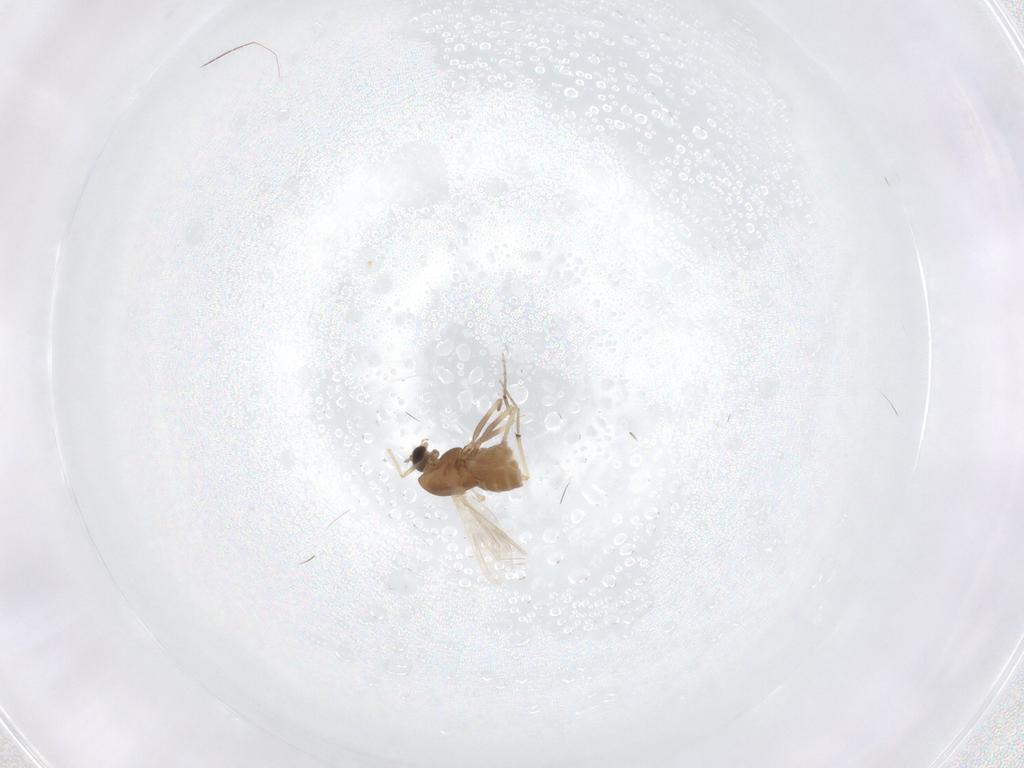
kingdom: Animalia
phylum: Arthropoda
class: Insecta
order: Diptera
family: Chironomidae
